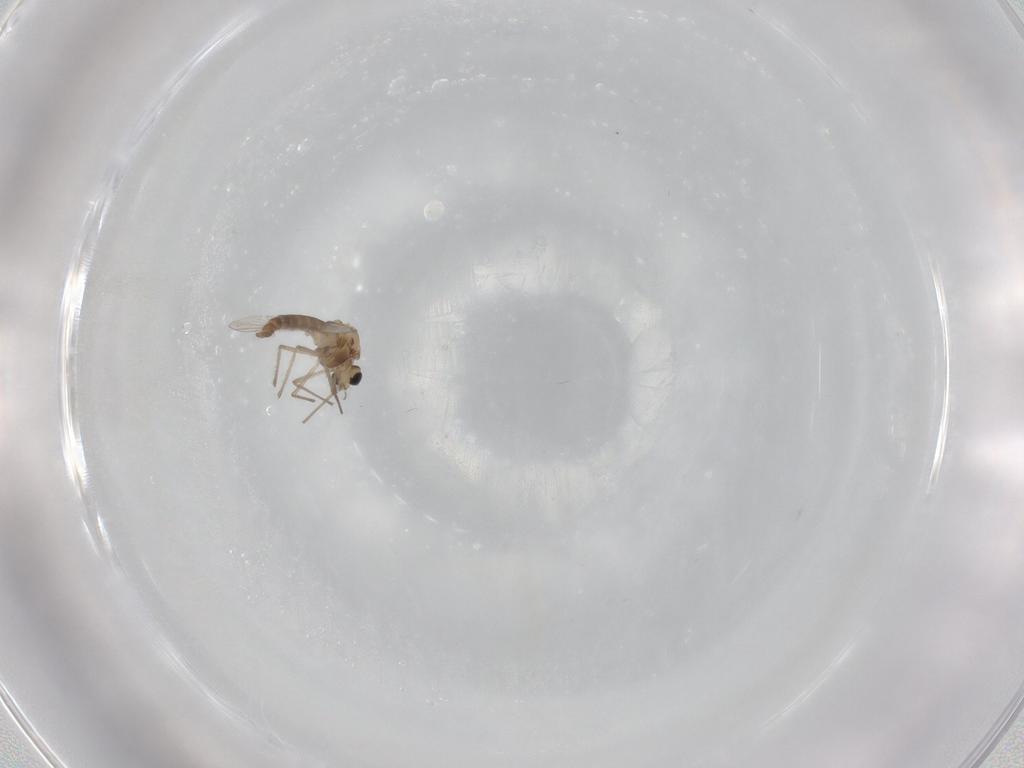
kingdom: Animalia
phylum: Arthropoda
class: Insecta
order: Diptera
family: Chironomidae
